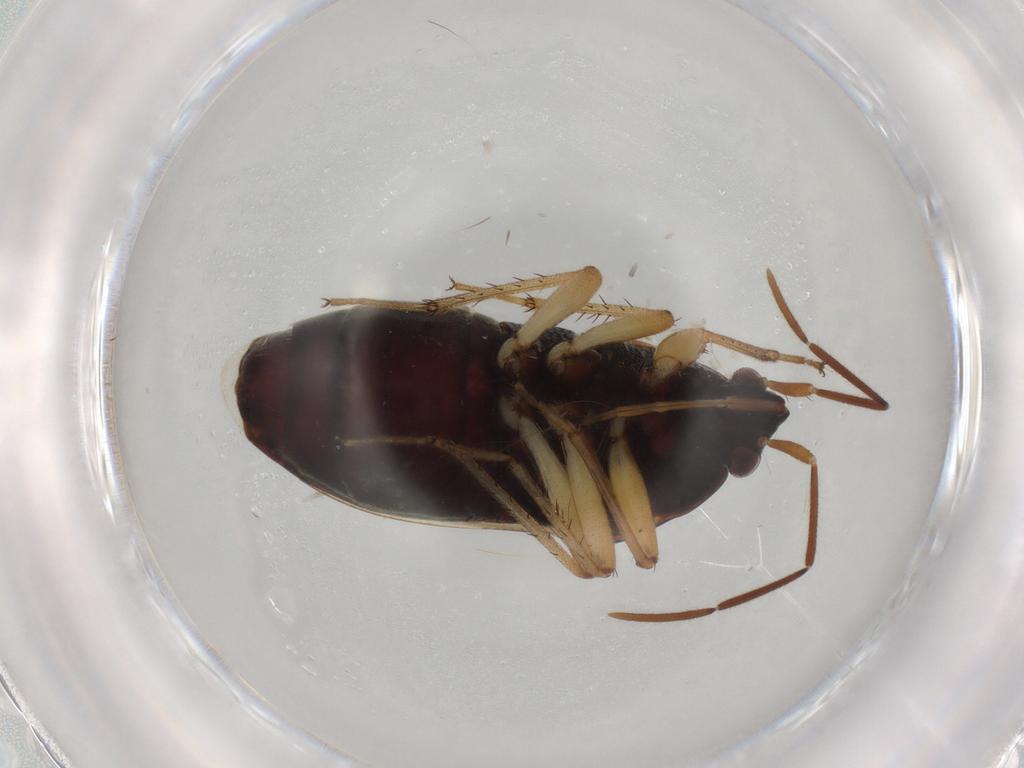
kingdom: Animalia
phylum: Arthropoda
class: Insecta
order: Hemiptera
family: Rhyparochromidae
